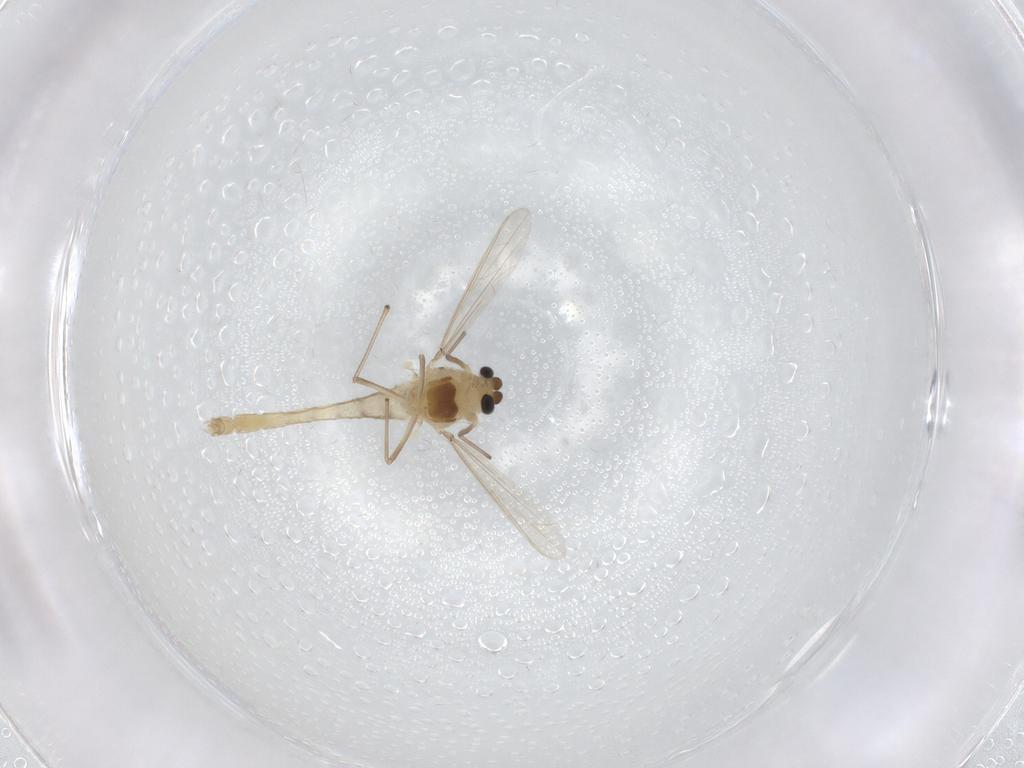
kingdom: Animalia
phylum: Arthropoda
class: Insecta
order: Diptera
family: Chironomidae
